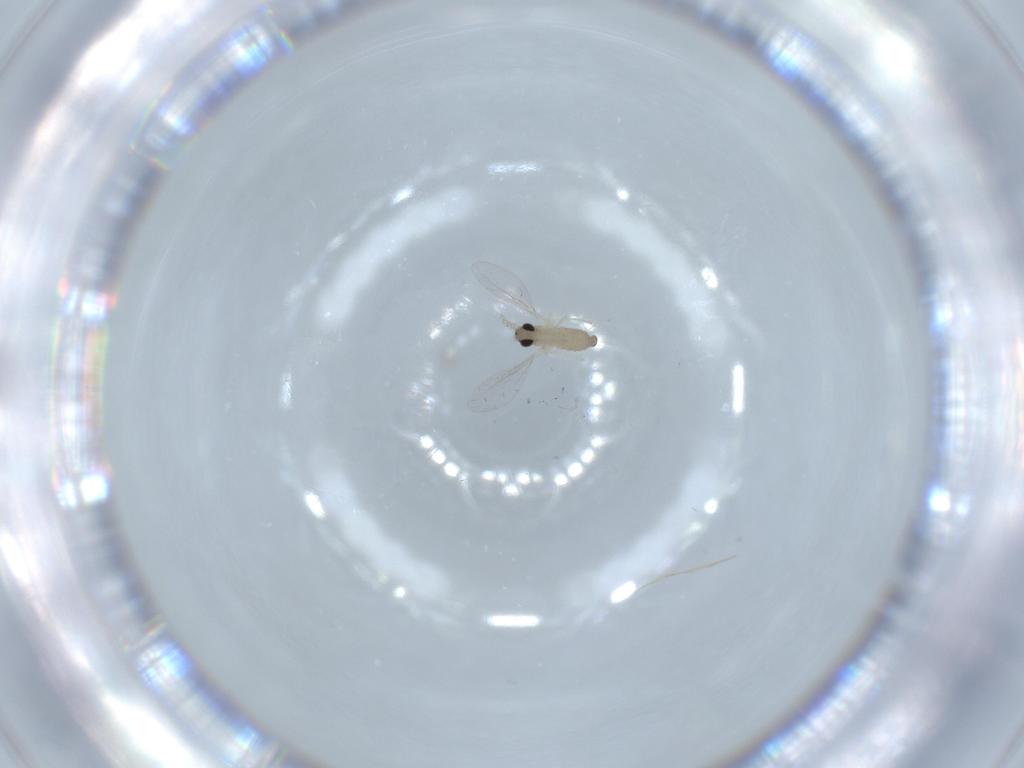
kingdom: Animalia
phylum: Arthropoda
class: Insecta
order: Diptera
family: Cecidomyiidae
